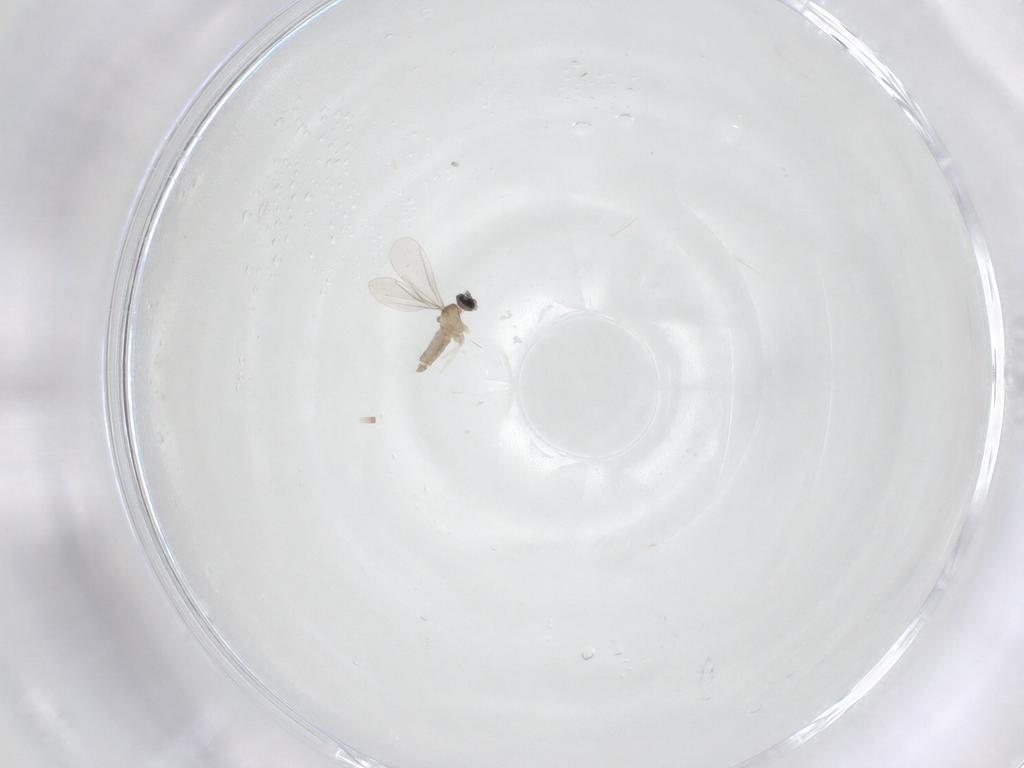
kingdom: Animalia
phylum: Arthropoda
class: Insecta
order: Diptera
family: Cecidomyiidae
